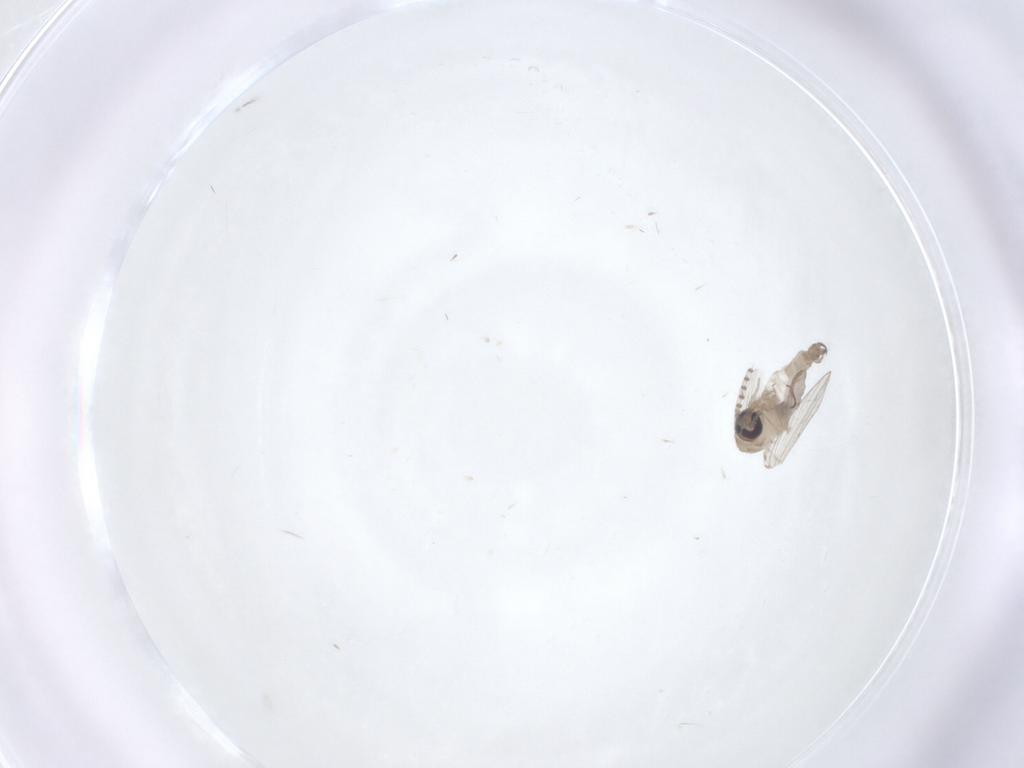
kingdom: Animalia
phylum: Arthropoda
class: Insecta
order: Diptera
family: Psychodidae
